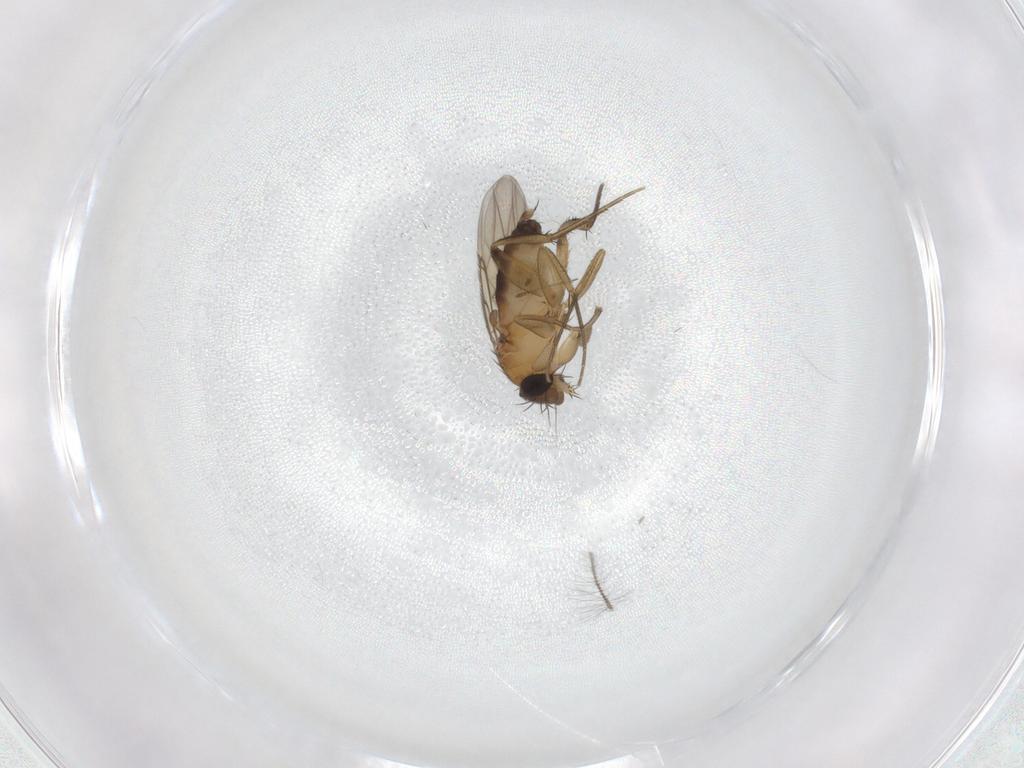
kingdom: Animalia
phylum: Arthropoda
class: Insecta
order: Diptera
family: Phoridae
